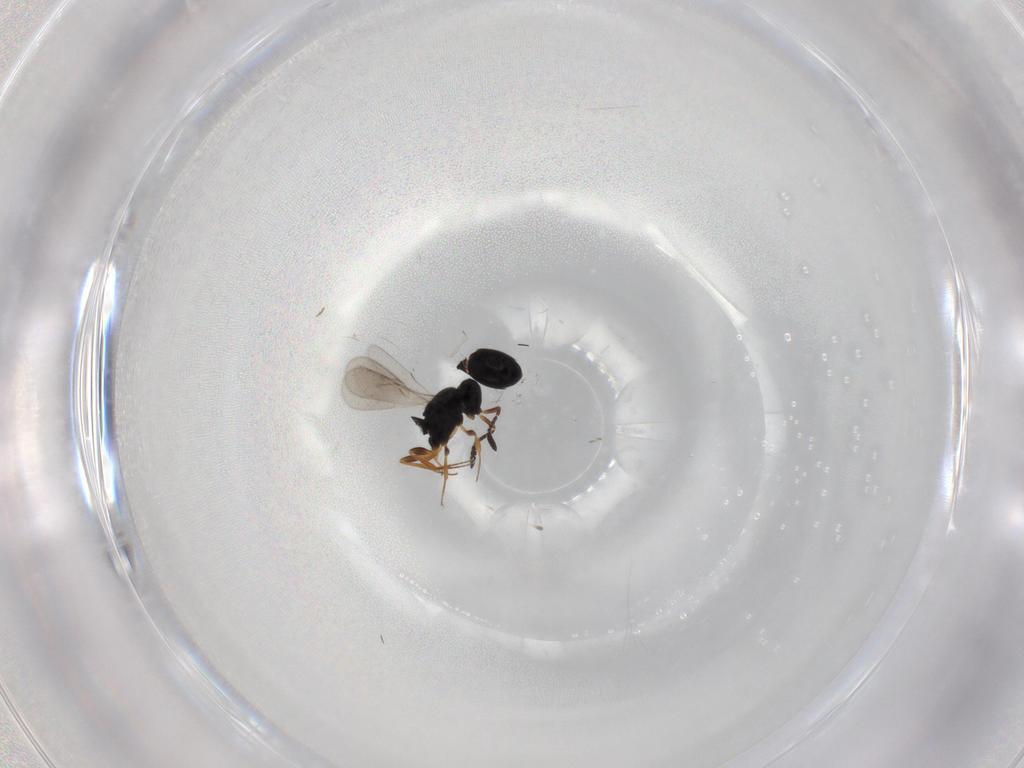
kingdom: Animalia
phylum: Arthropoda
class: Insecta
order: Hymenoptera
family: Scelionidae
